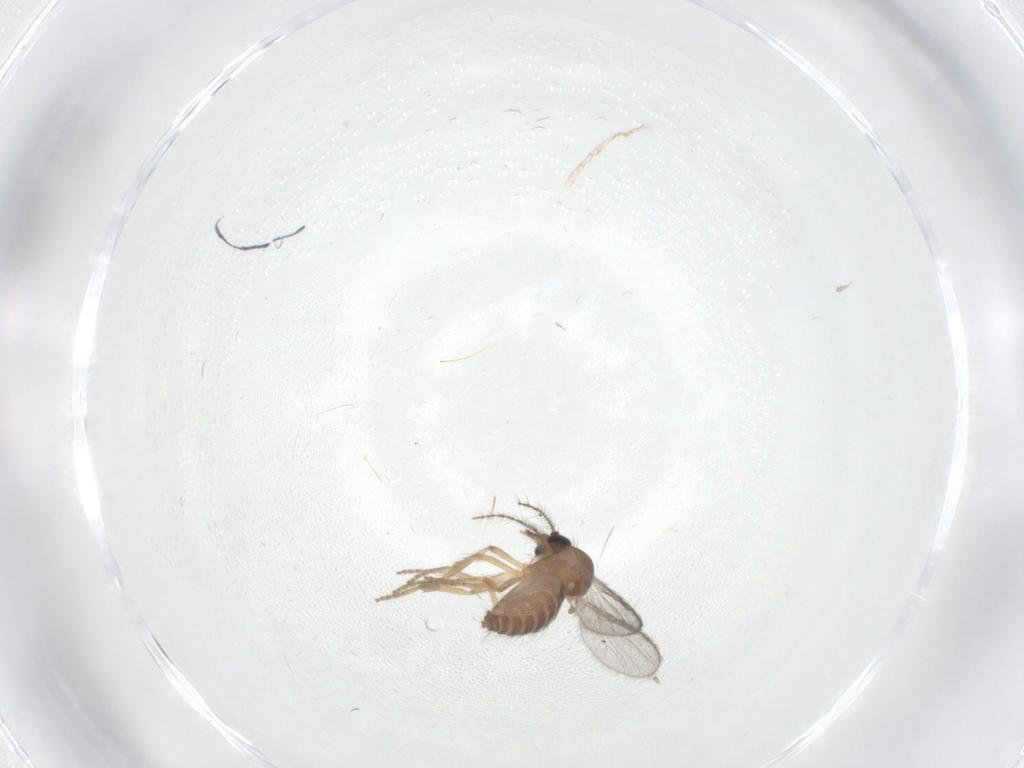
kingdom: Animalia
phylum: Arthropoda
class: Insecta
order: Diptera
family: Ceratopogonidae
